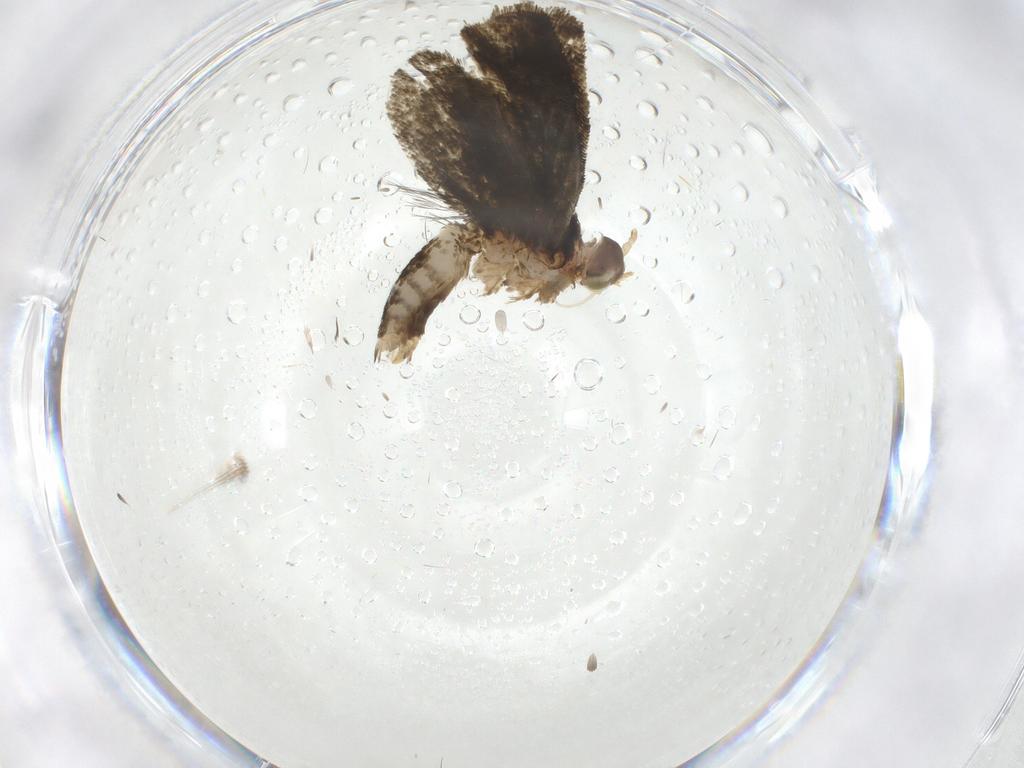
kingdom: Animalia
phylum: Arthropoda
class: Insecta
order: Lepidoptera
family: Tortricidae
